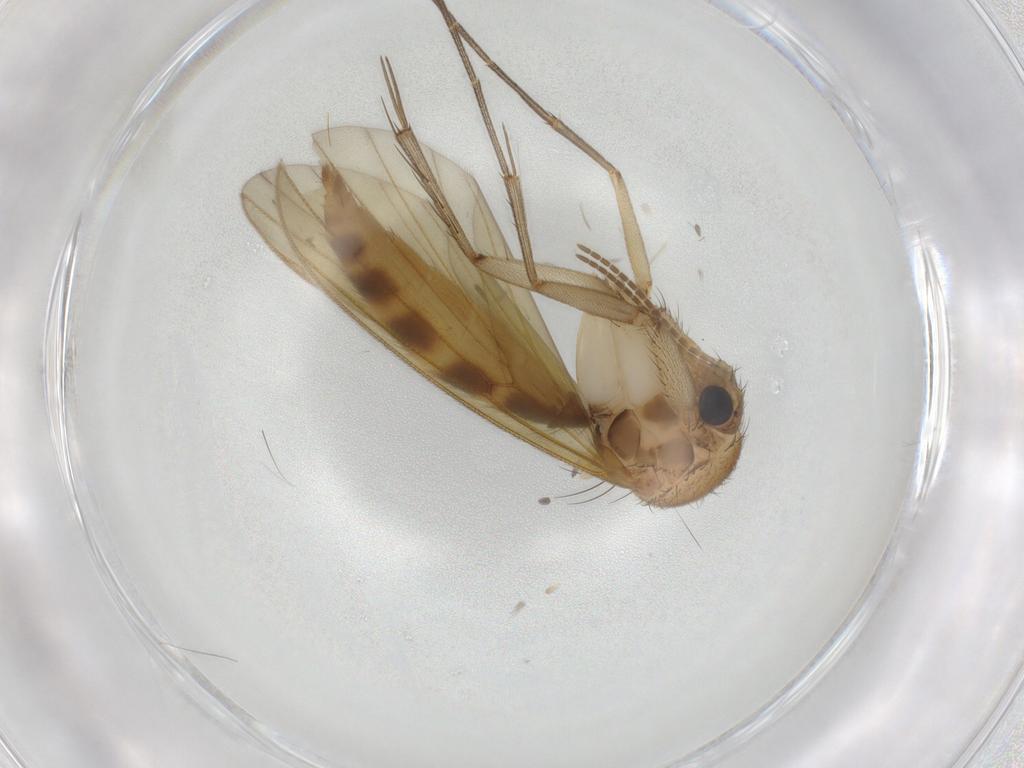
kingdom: Animalia
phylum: Arthropoda
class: Insecta
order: Diptera
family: Mycetophilidae
